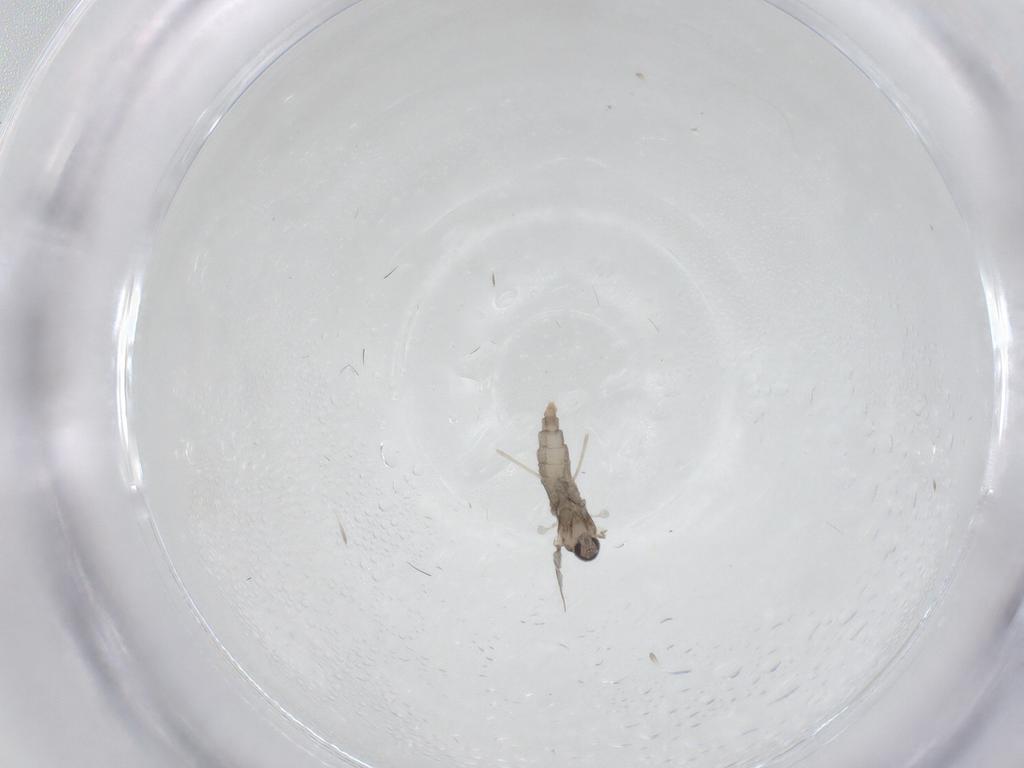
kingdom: Animalia
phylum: Arthropoda
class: Insecta
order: Diptera
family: Cecidomyiidae
